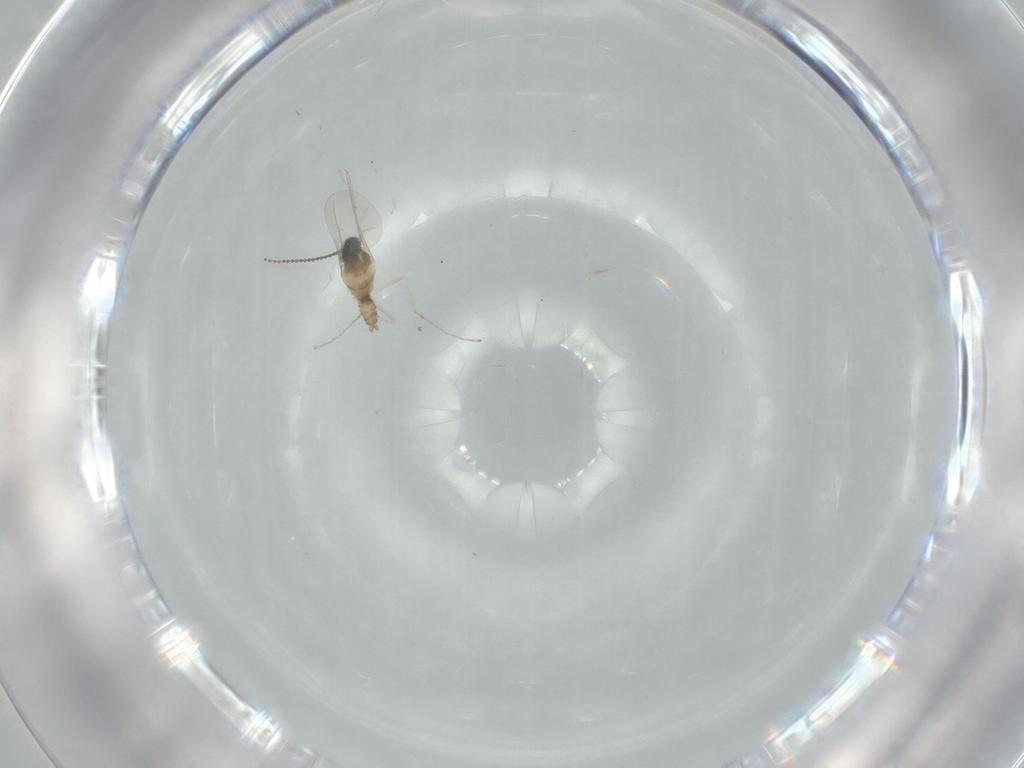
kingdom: Animalia
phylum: Arthropoda
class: Insecta
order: Diptera
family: Cecidomyiidae
